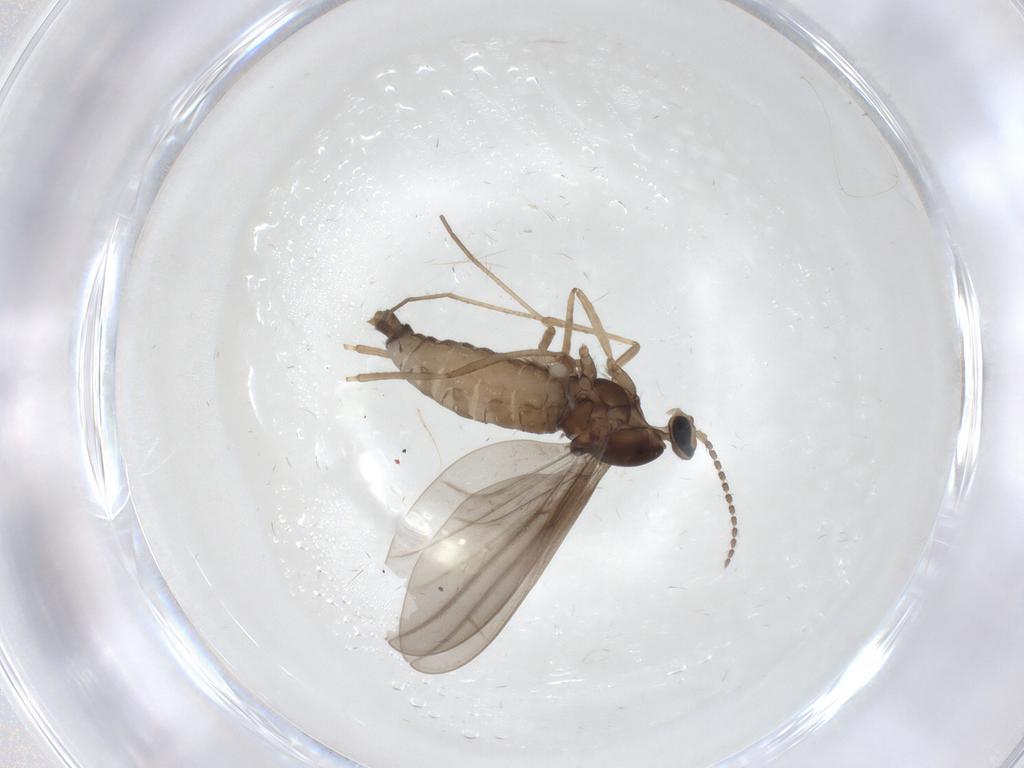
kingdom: Animalia
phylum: Arthropoda
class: Insecta
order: Diptera
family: Cecidomyiidae
